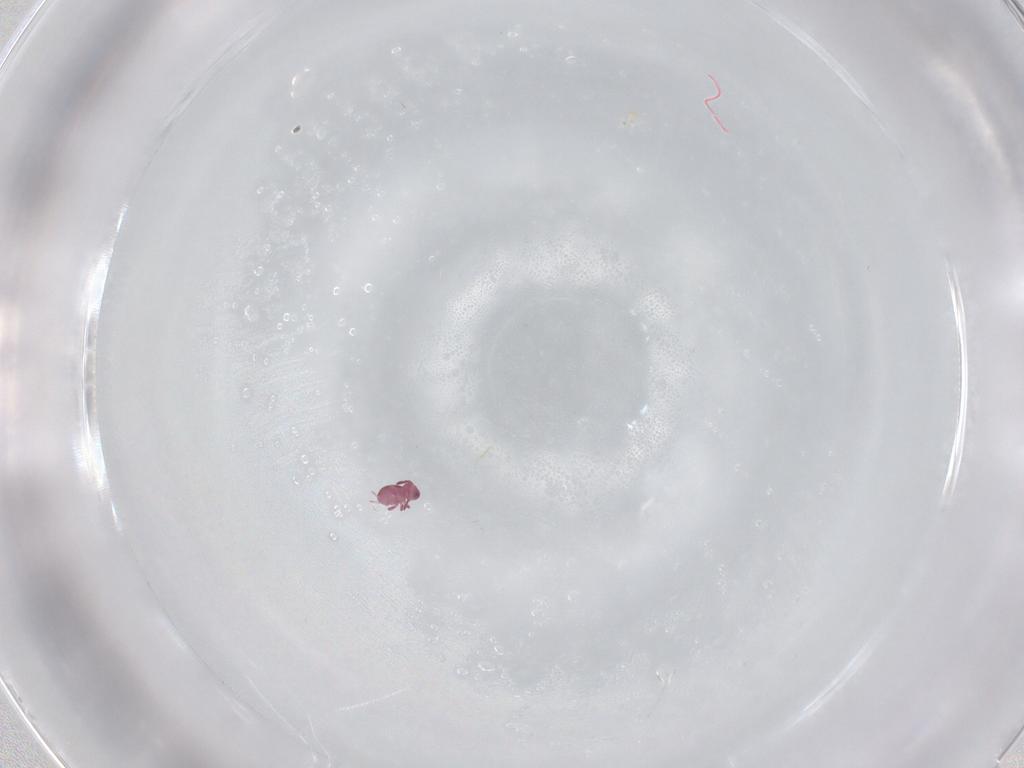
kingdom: Animalia
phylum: Arthropoda
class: Collembola
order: Symphypleona
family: Sminthurididae
